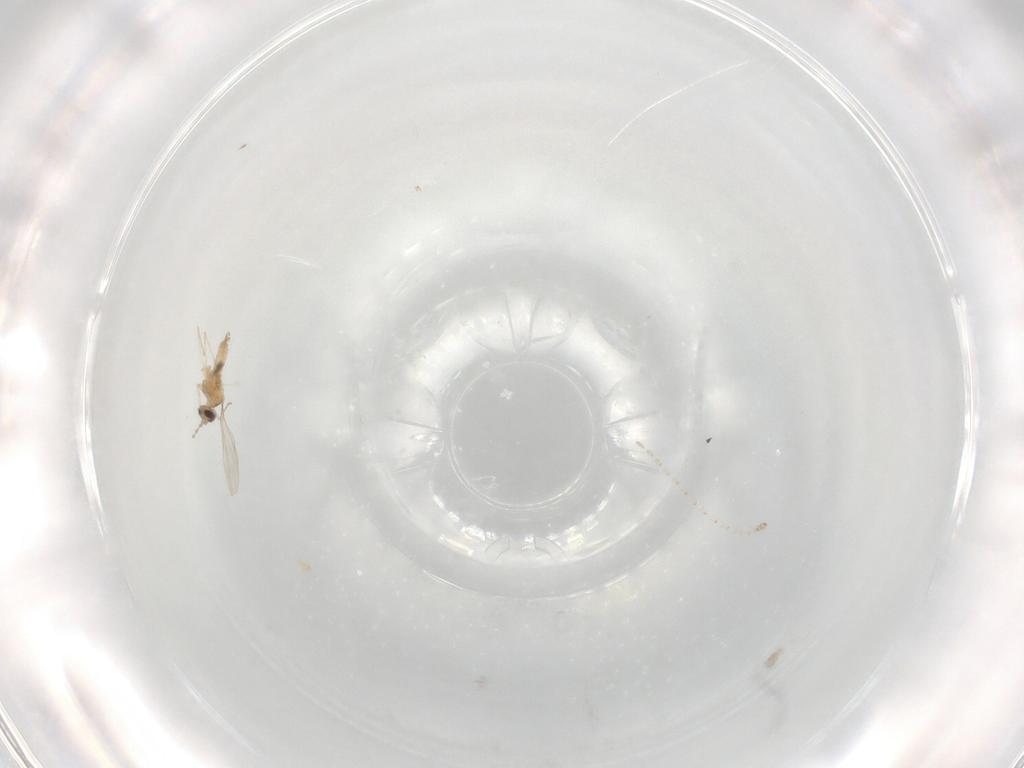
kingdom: Animalia
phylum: Arthropoda
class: Insecta
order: Diptera
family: Cecidomyiidae
